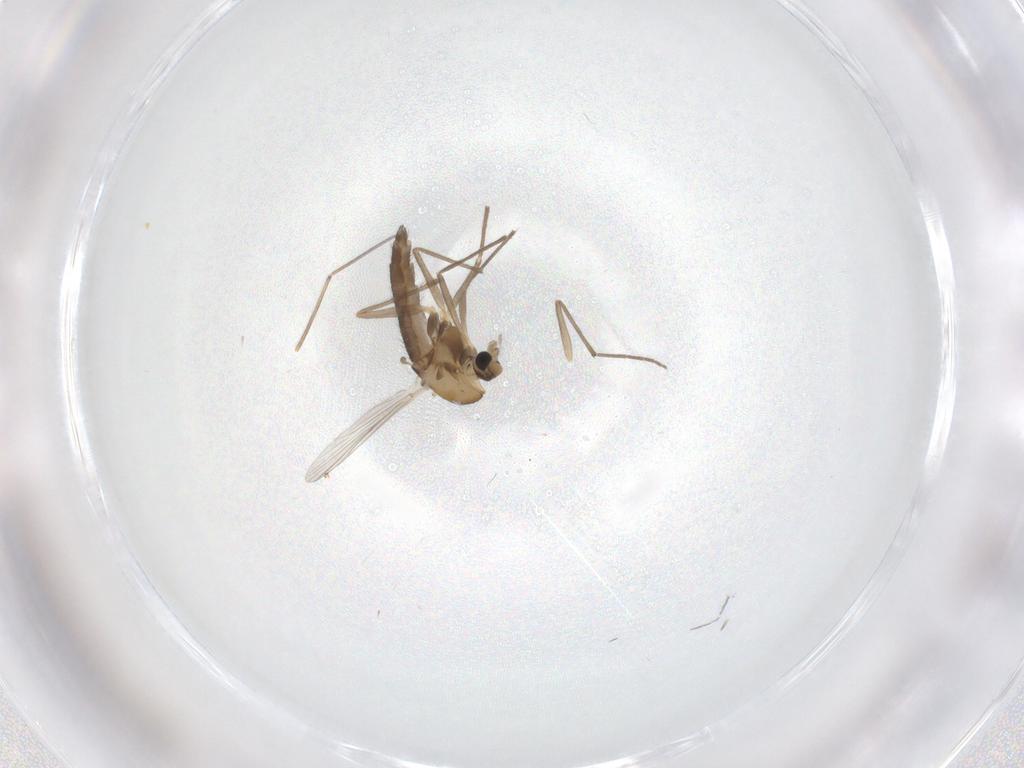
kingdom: Animalia
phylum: Arthropoda
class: Insecta
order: Diptera
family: Chironomidae
